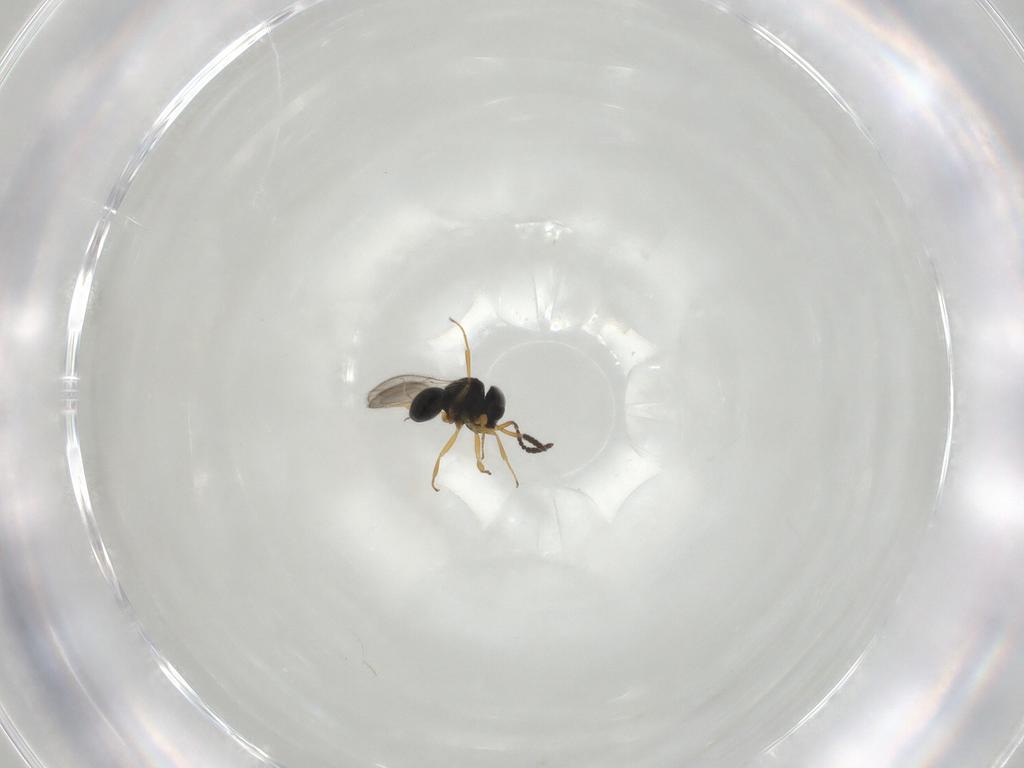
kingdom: Animalia
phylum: Arthropoda
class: Insecta
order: Hymenoptera
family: Scelionidae
